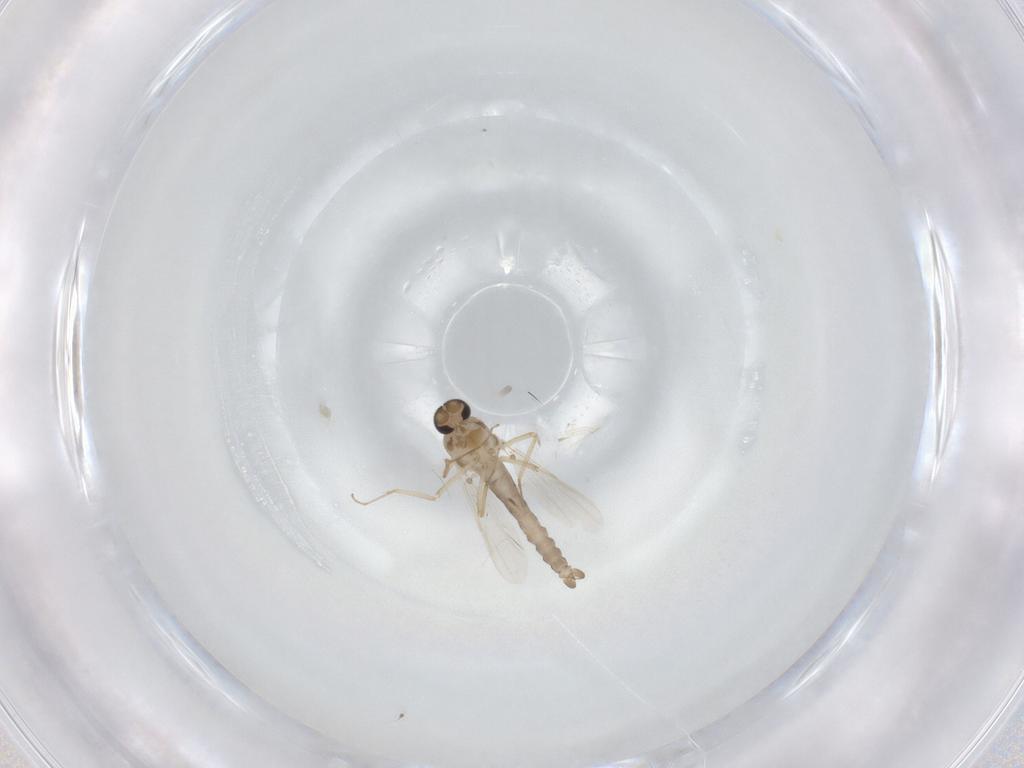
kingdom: Animalia
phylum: Arthropoda
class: Insecta
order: Diptera
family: Ceratopogonidae
